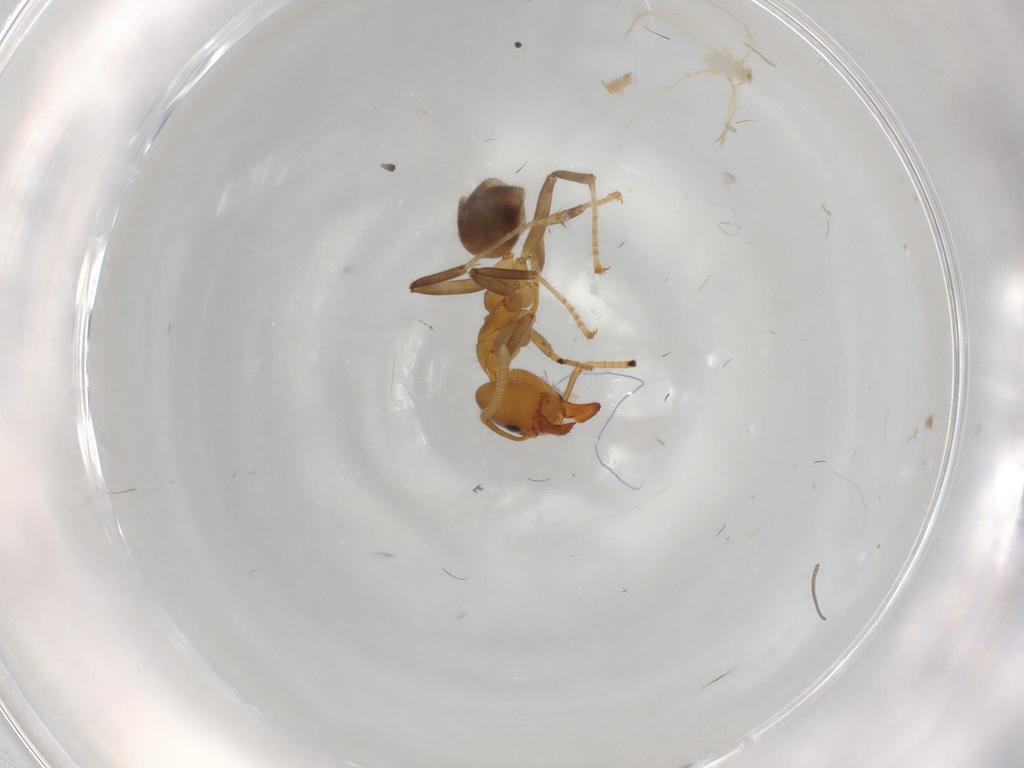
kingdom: Animalia
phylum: Arthropoda
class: Insecta
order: Hymenoptera
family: Formicidae
